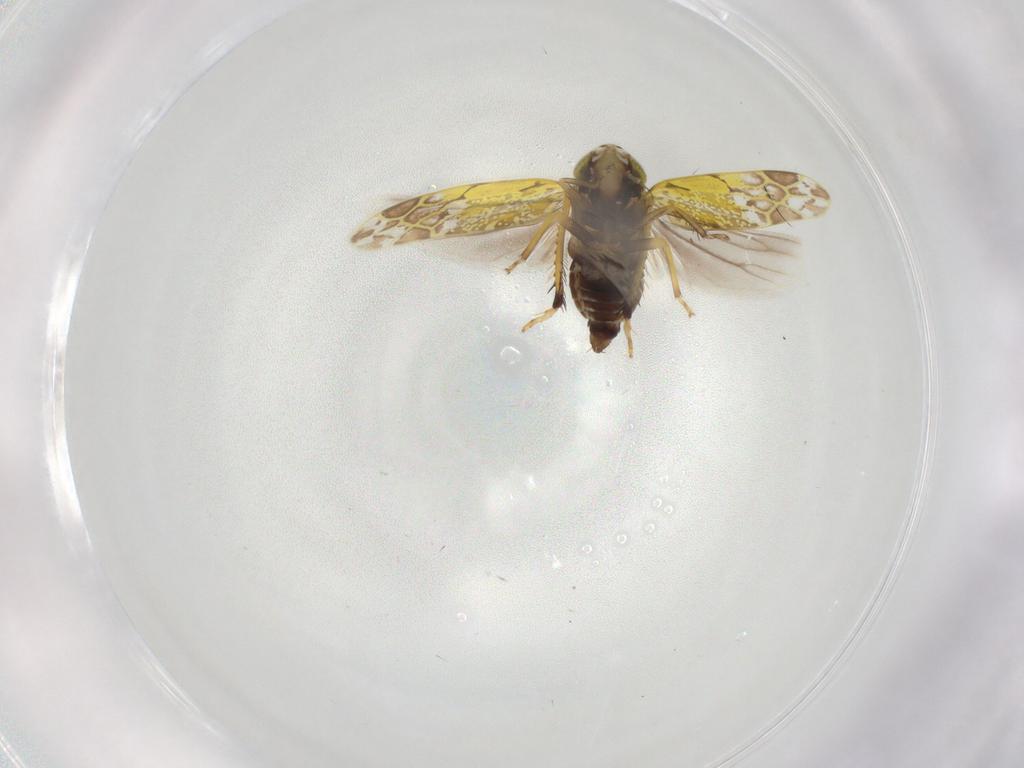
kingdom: Animalia
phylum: Arthropoda
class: Insecta
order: Hemiptera
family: Cicadellidae
